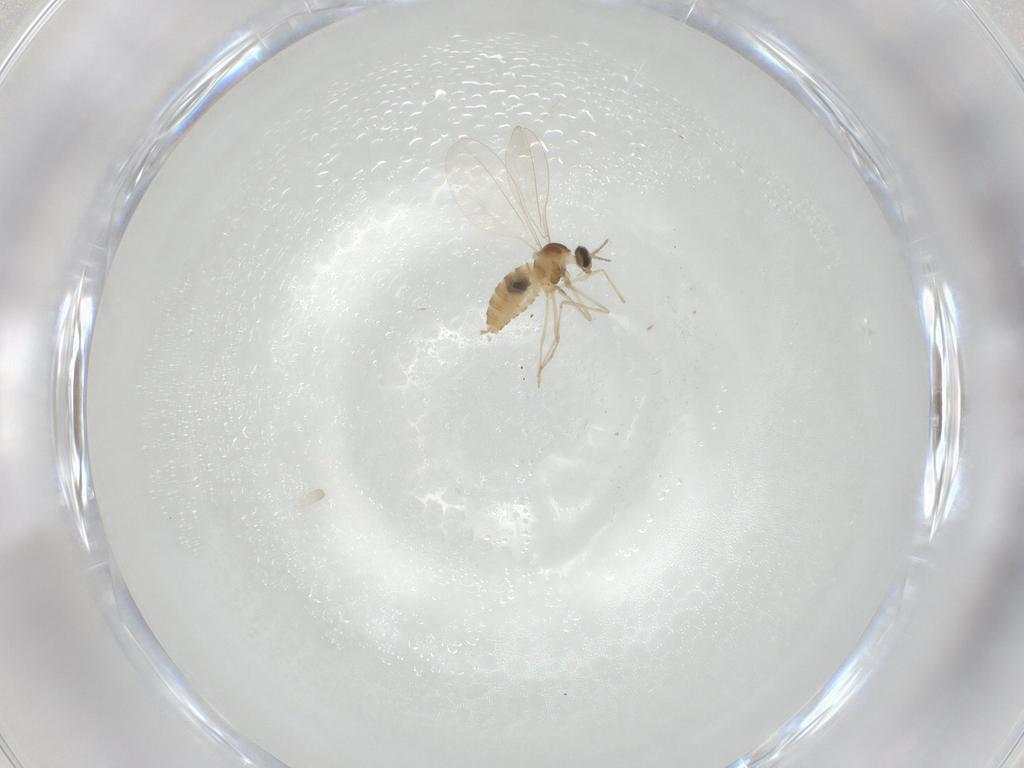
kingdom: Animalia
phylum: Arthropoda
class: Insecta
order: Diptera
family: Cecidomyiidae
